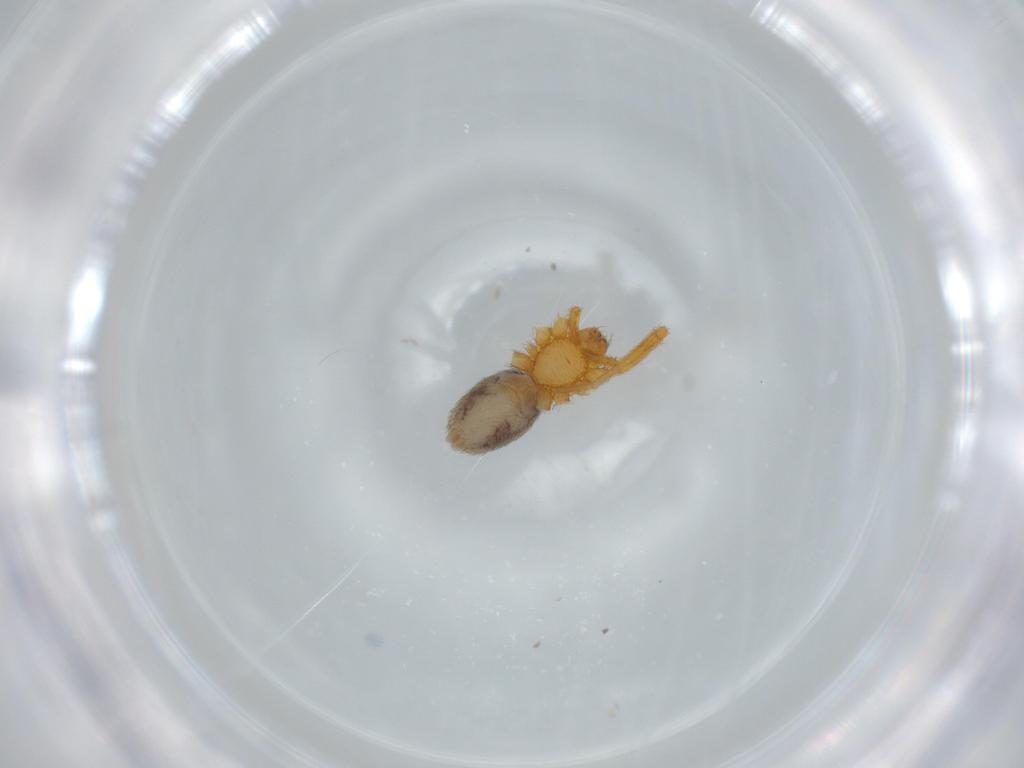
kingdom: Animalia
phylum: Arthropoda
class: Arachnida
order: Araneae
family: Oonopidae
